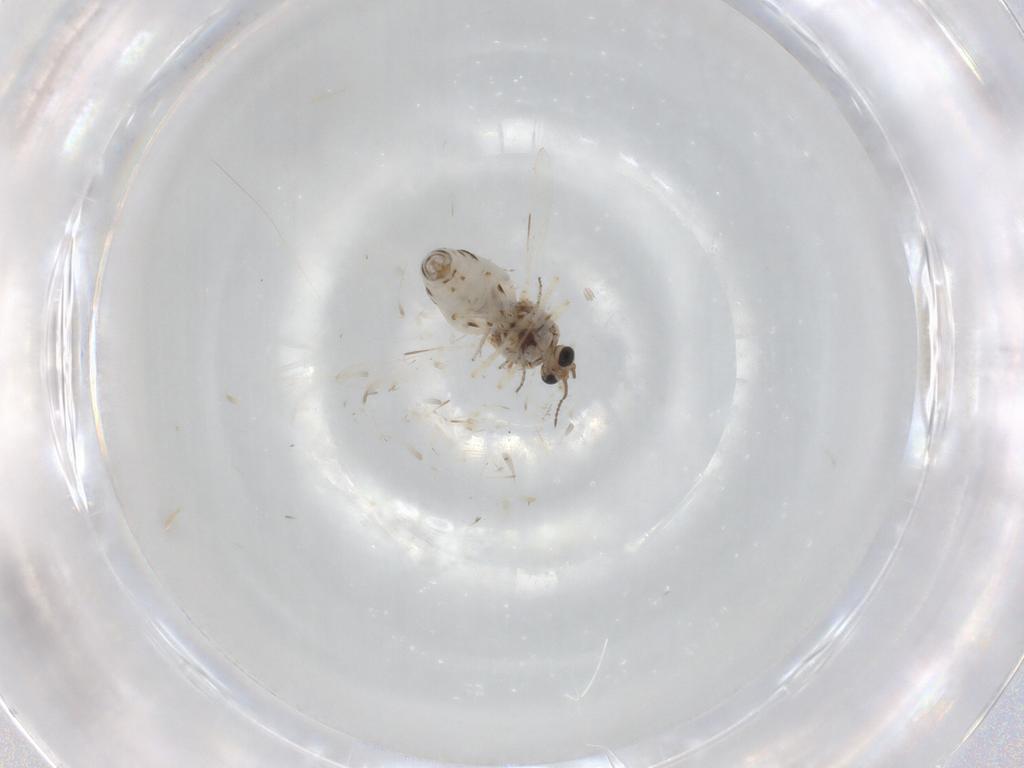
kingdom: Animalia
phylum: Arthropoda
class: Insecta
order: Diptera
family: Ceratopogonidae
